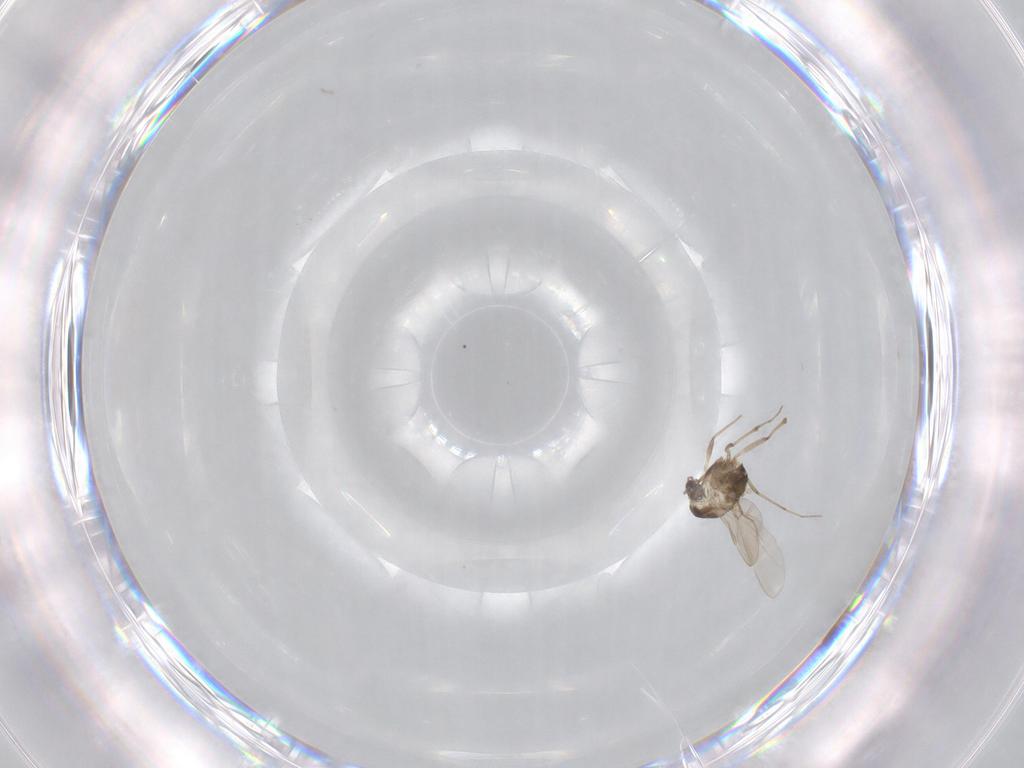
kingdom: Animalia
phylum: Arthropoda
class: Insecta
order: Diptera
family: Chironomidae
